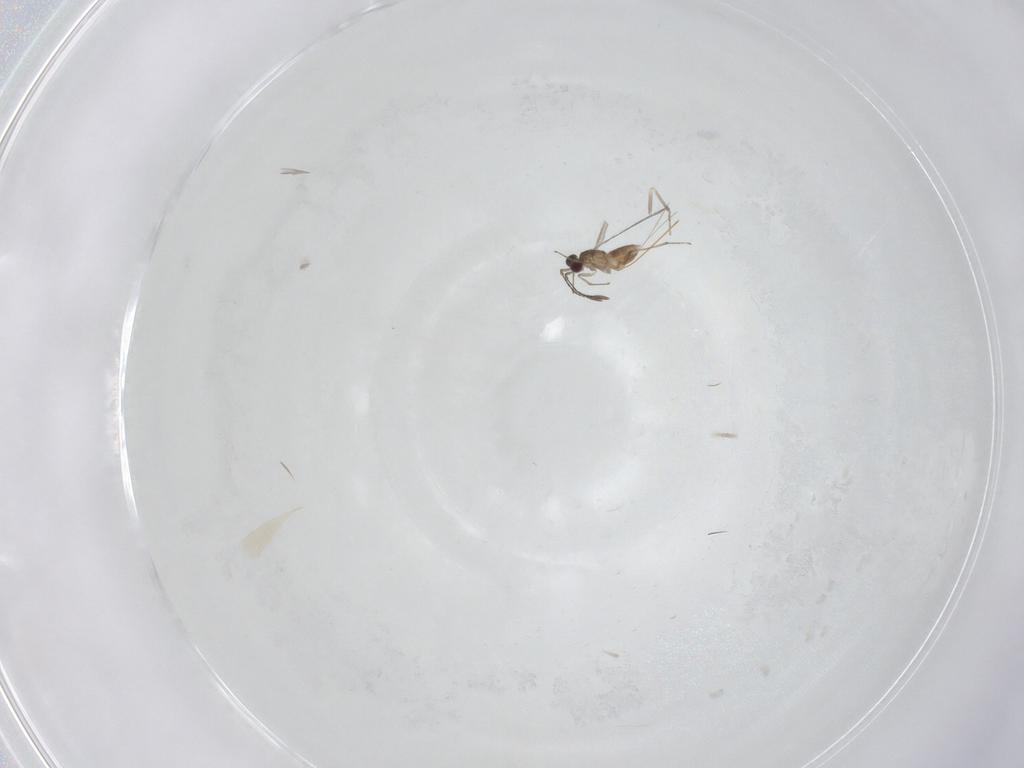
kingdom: Animalia
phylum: Arthropoda
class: Insecta
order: Hymenoptera
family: Mymaridae
